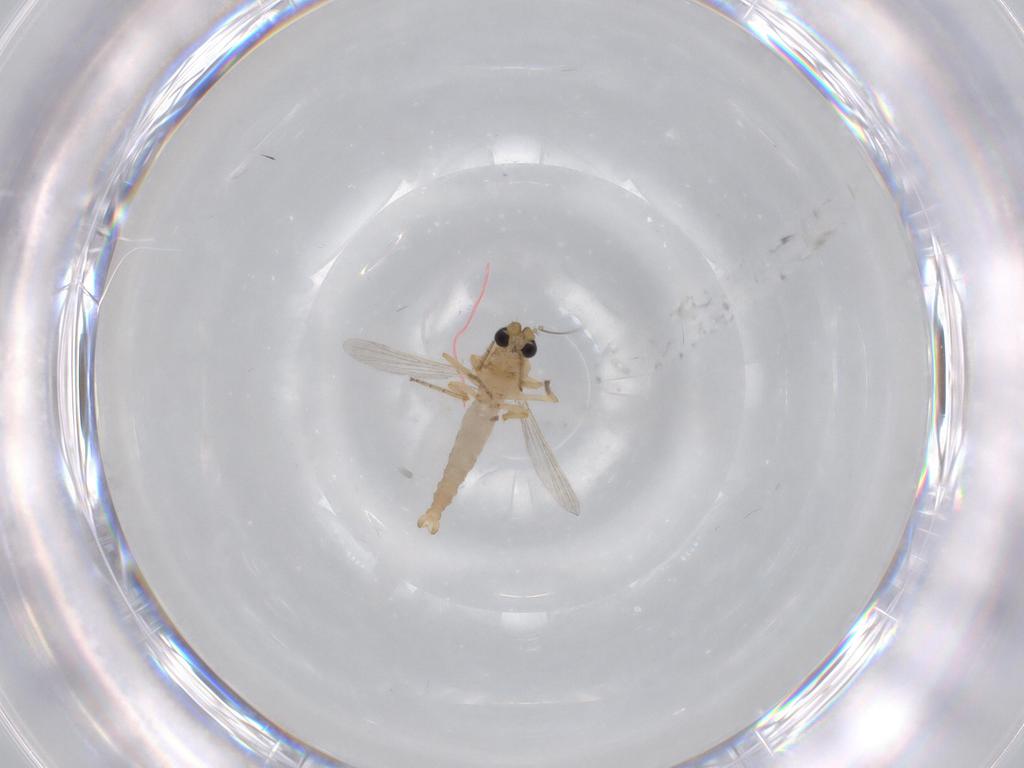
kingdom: Animalia
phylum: Arthropoda
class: Insecta
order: Diptera
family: Ceratopogonidae
